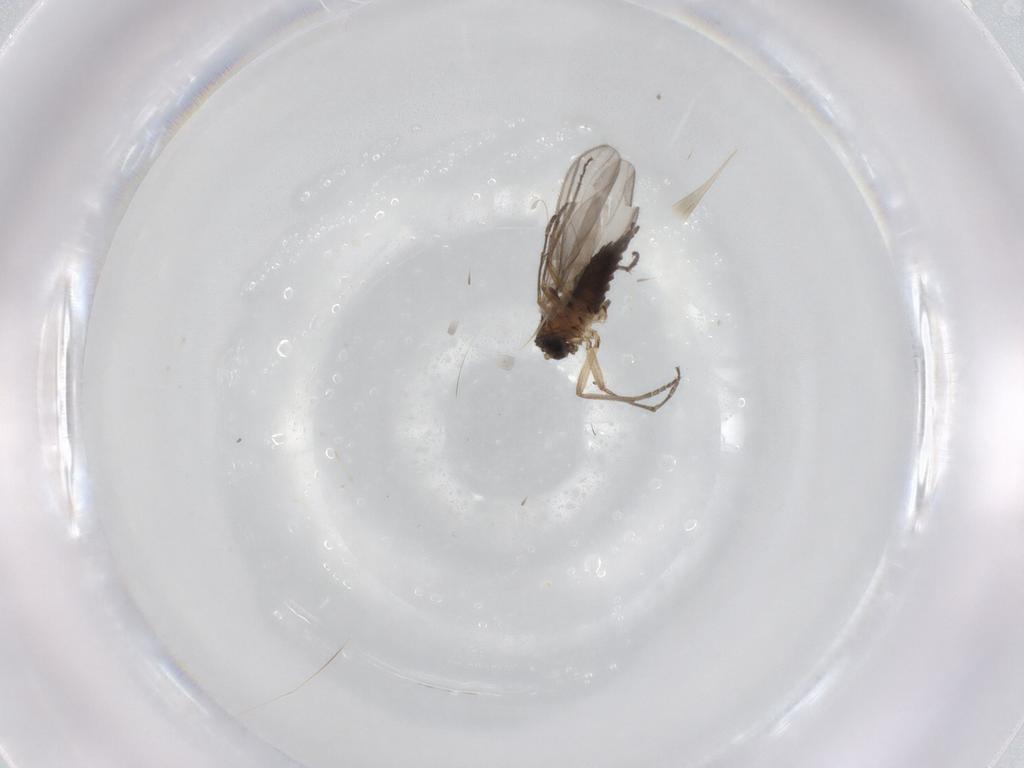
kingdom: Animalia
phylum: Arthropoda
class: Insecta
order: Diptera
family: Sciaridae
